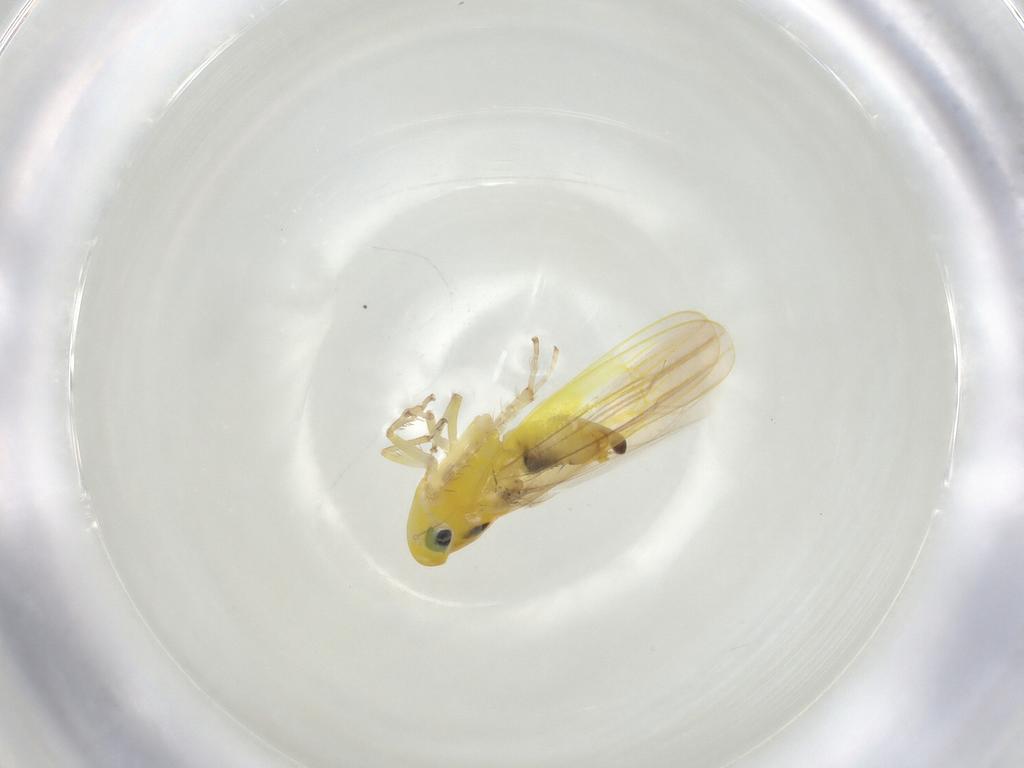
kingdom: Animalia
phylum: Arthropoda
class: Insecta
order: Hemiptera
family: Cicadellidae
